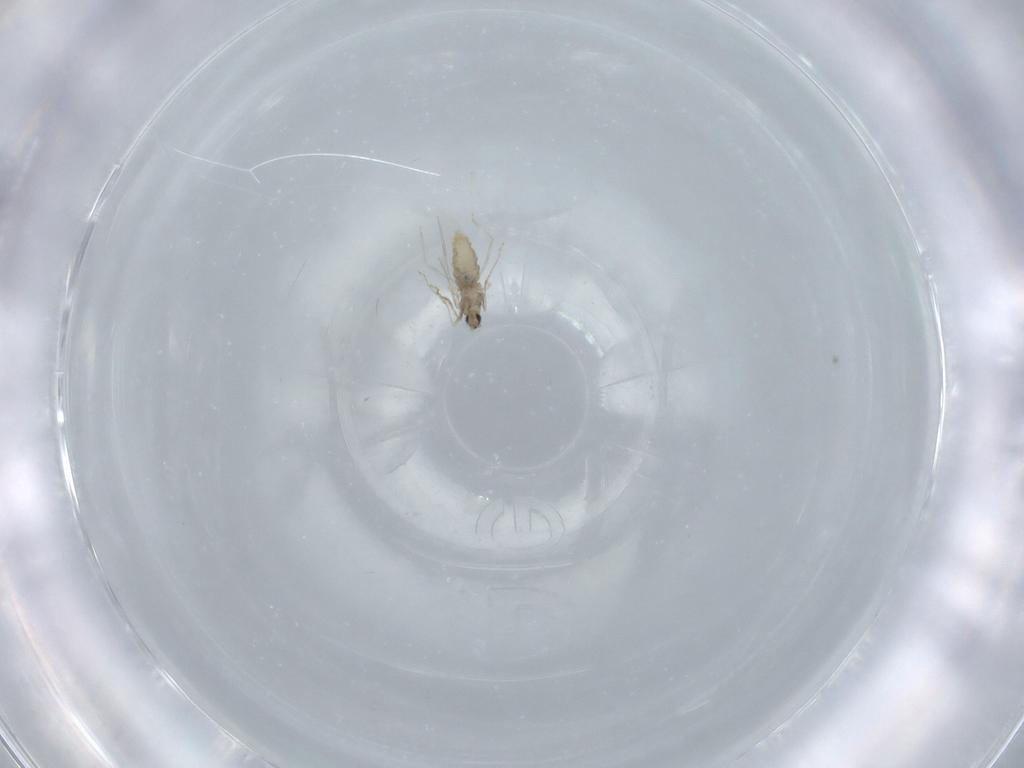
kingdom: Animalia
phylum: Arthropoda
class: Insecta
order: Diptera
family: Cecidomyiidae
